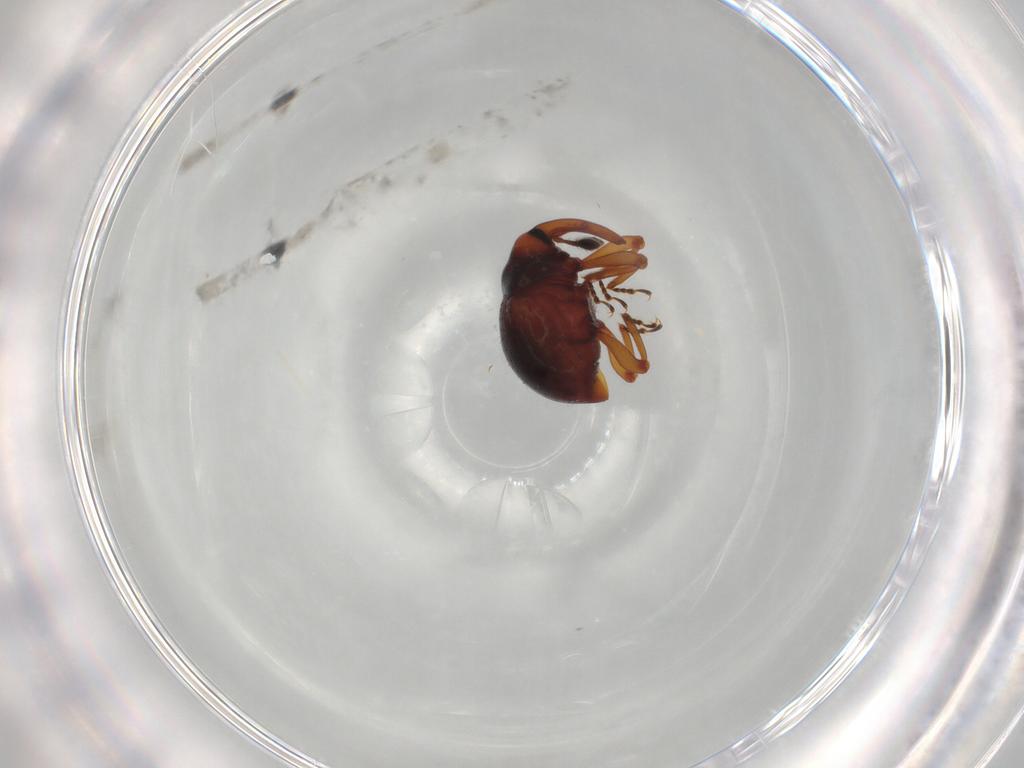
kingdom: Animalia
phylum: Arthropoda
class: Insecta
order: Coleoptera
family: Curculionidae
